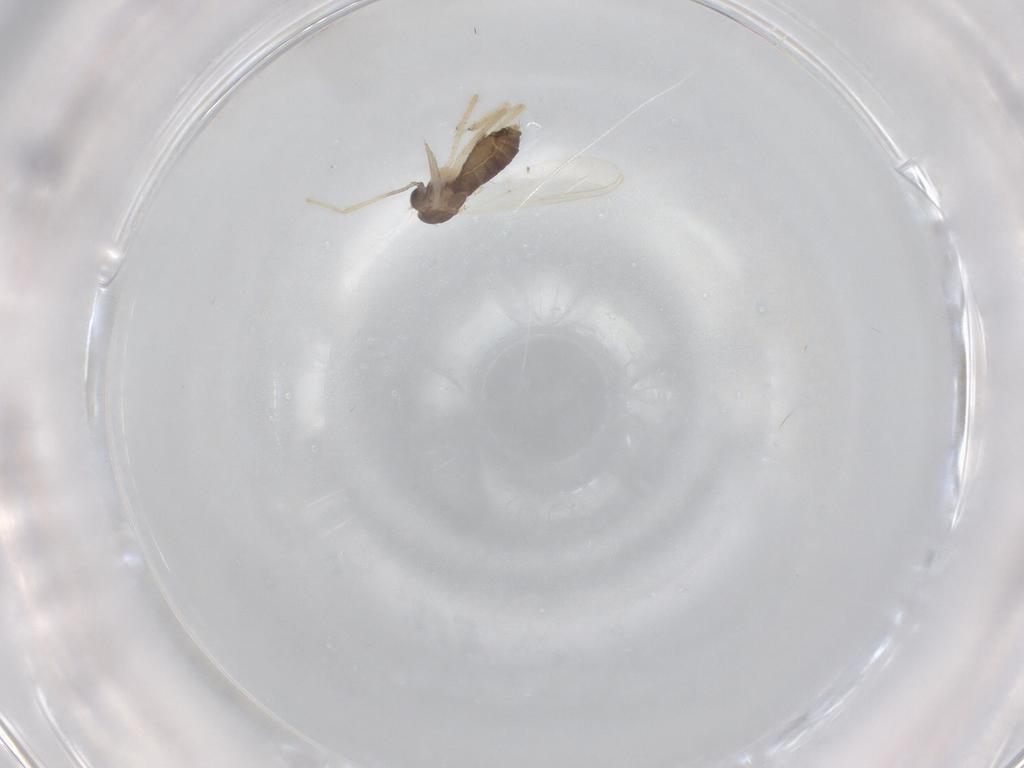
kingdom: Animalia
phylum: Arthropoda
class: Insecta
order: Diptera
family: Chironomidae
